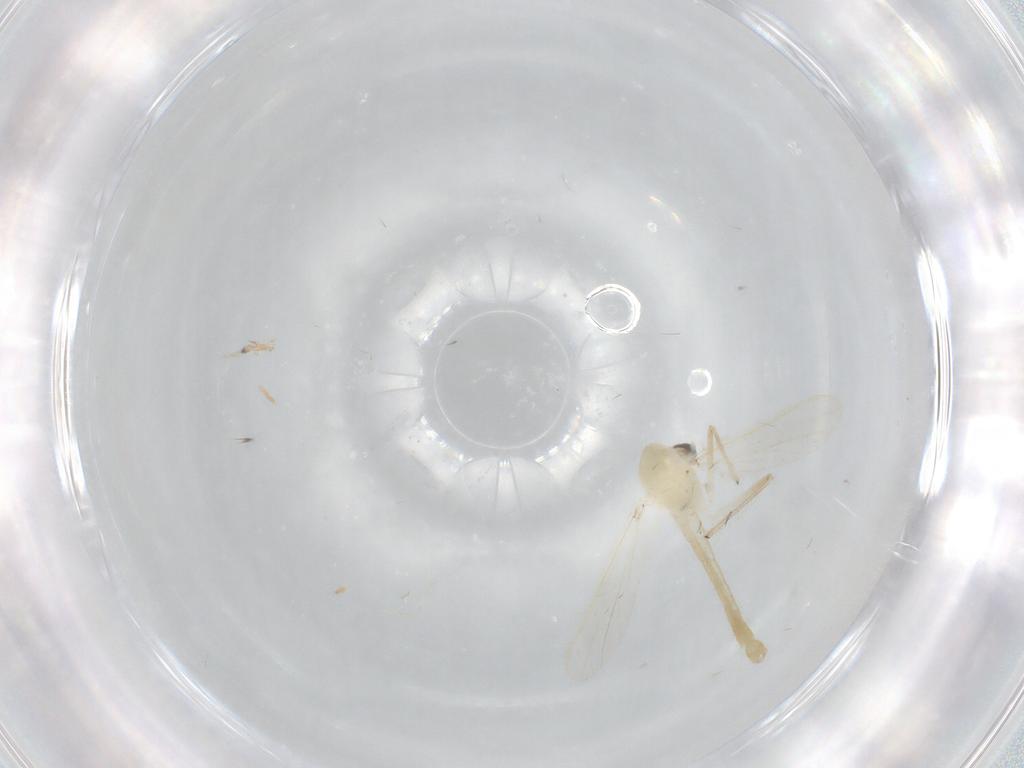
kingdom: Animalia
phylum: Arthropoda
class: Insecta
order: Diptera
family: Chironomidae
